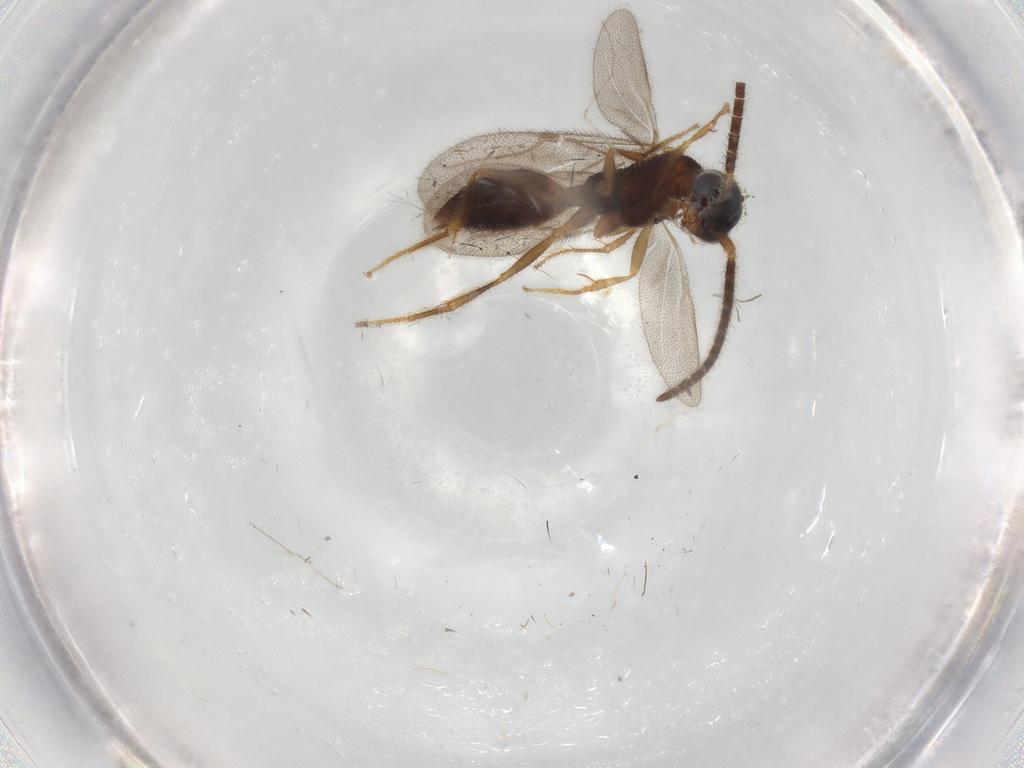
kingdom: Animalia
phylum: Arthropoda
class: Insecta
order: Hymenoptera
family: Bethylidae
